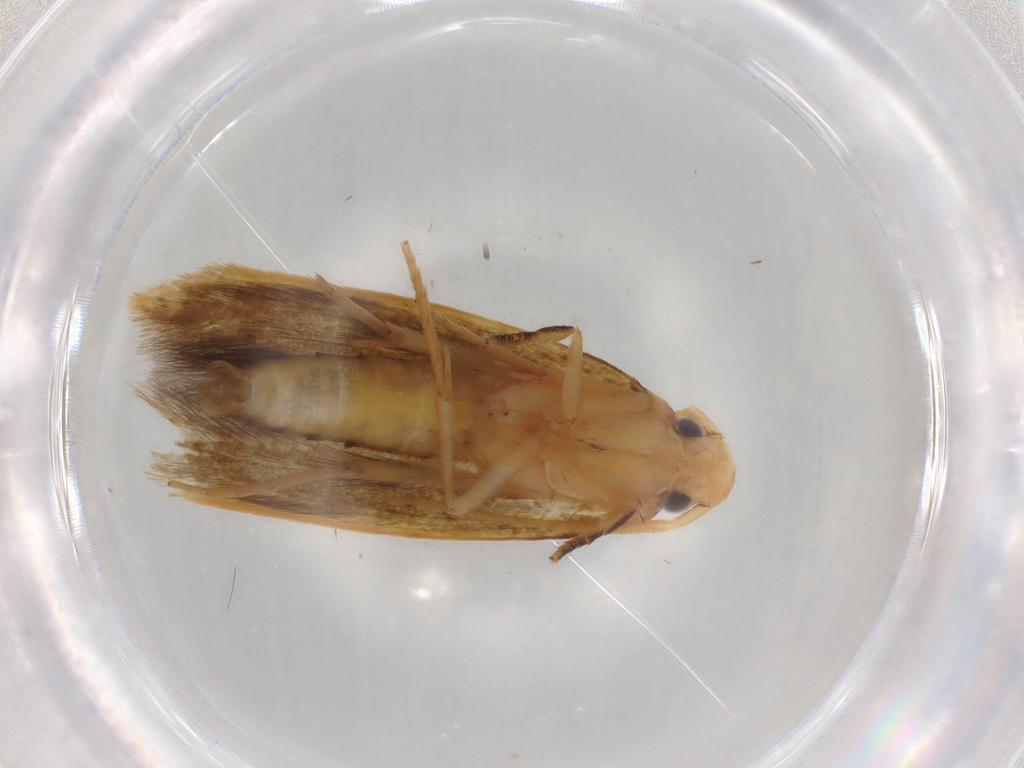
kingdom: Animalia
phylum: Arthropoda
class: Insecta
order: Lepidoptera
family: Tineidae
